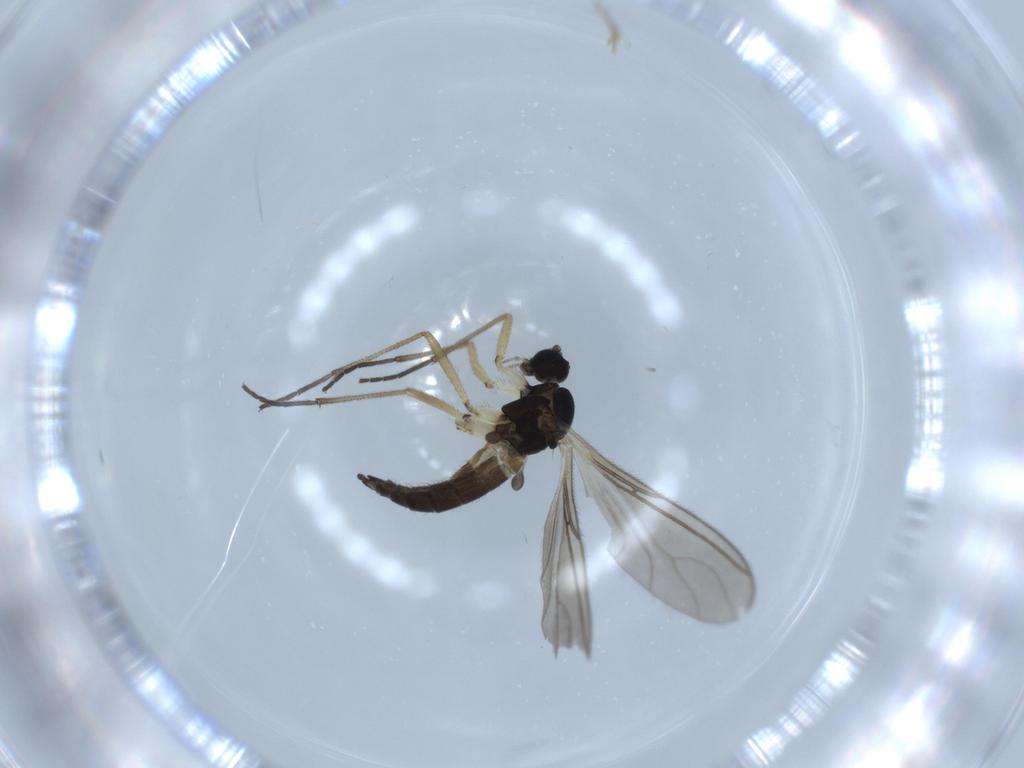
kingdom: Animalia
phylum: Arthropoda
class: Insecta
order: Diptera
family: Sciaridae
